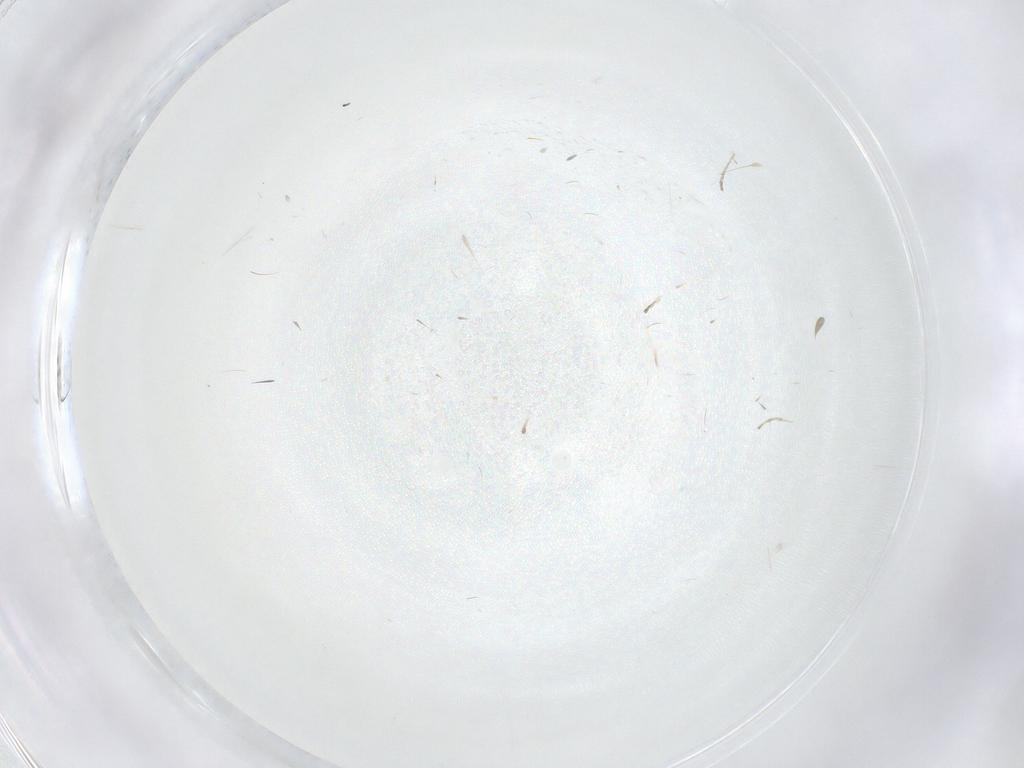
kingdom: Animalia
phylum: Arthropoda
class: Insecta
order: Diptera
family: Cecidomyiidae
